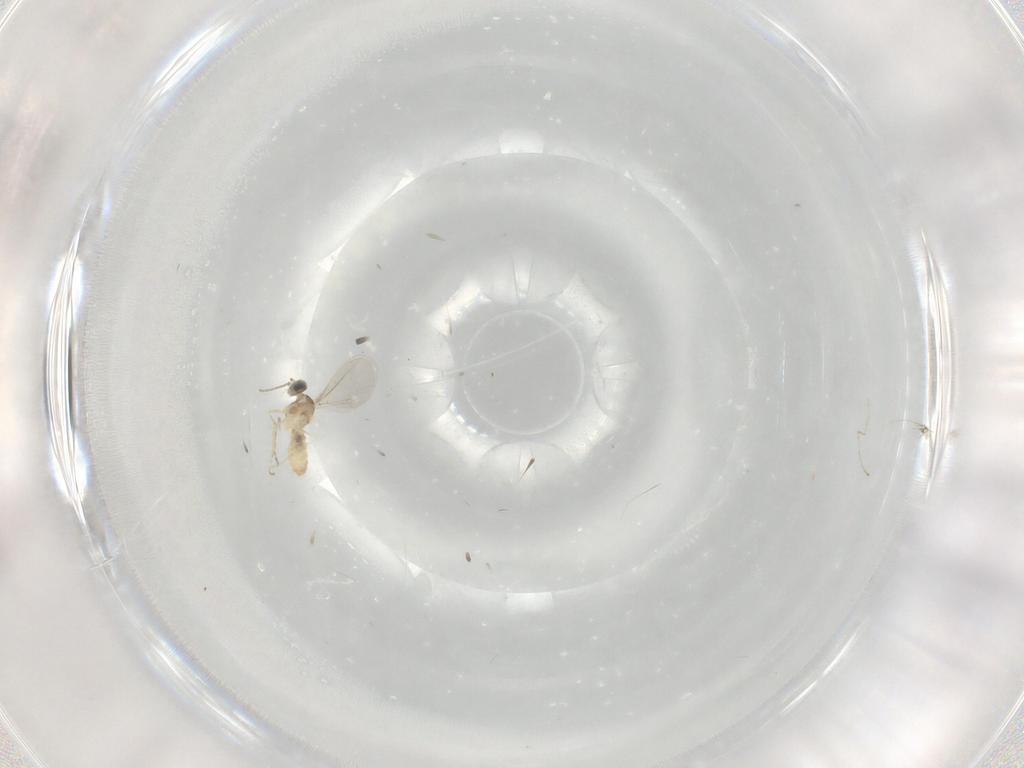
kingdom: Animalia
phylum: Arthropoda
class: Insecta
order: Diptera
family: Cecidomyiidae
